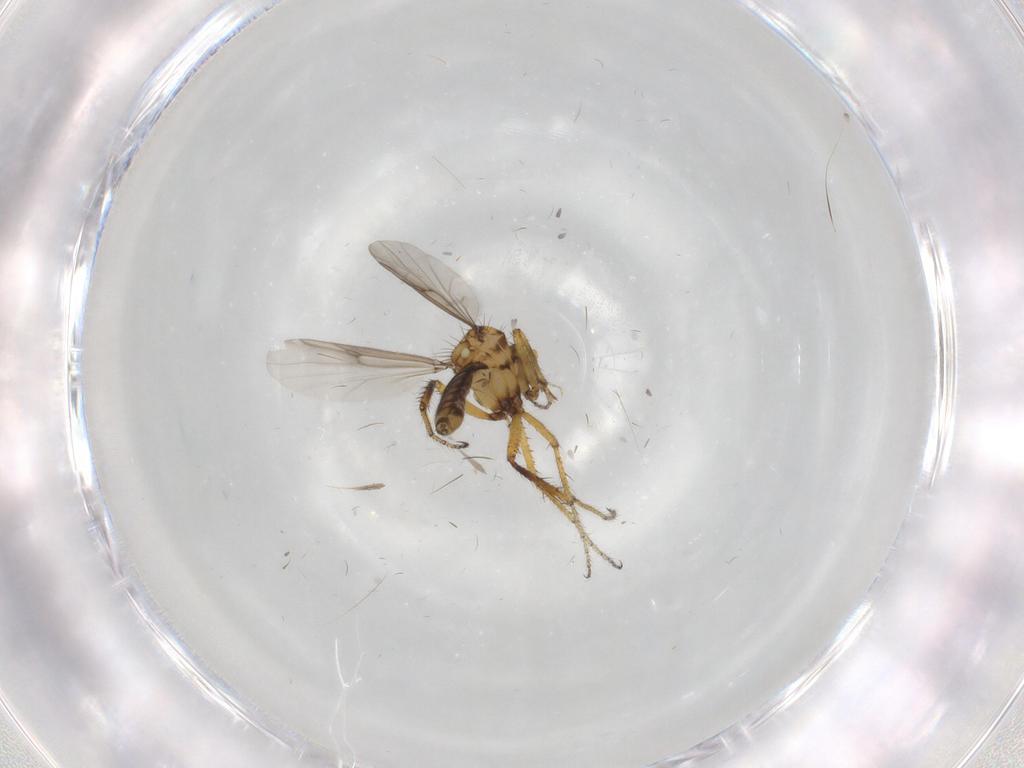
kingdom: Animalia
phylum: Arthropoda
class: Insecta
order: Diptera
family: Ceratopogonidae
